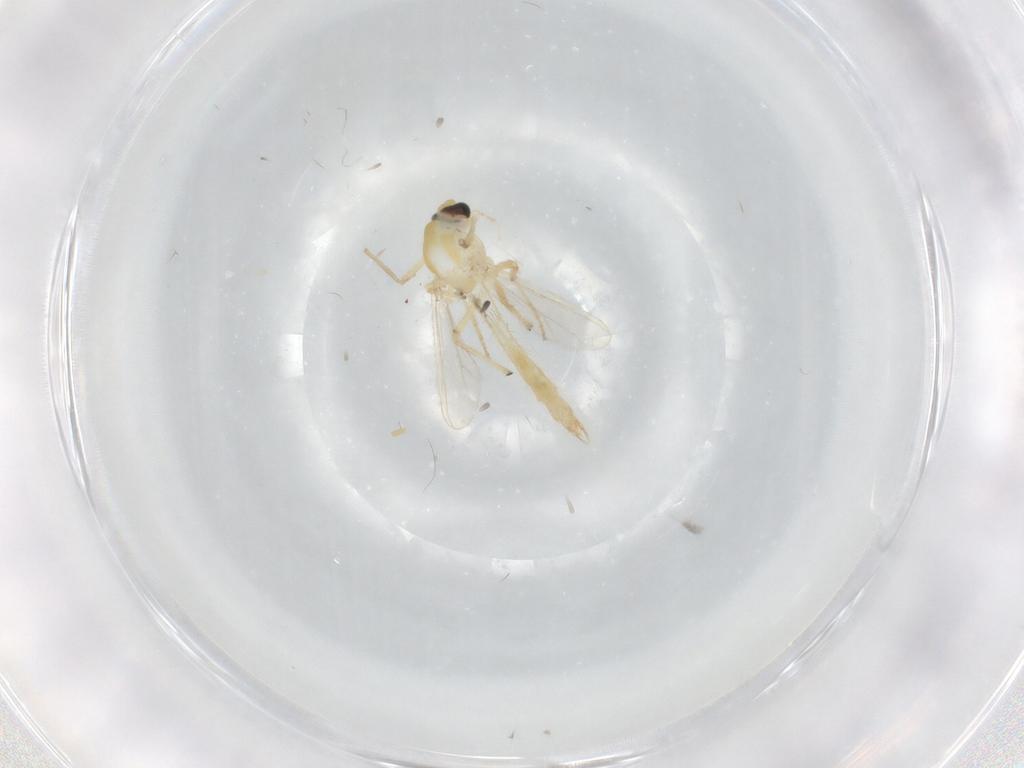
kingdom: Animalia
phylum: Arthropoda
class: Insecta
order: Diptera
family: Chironomidae
